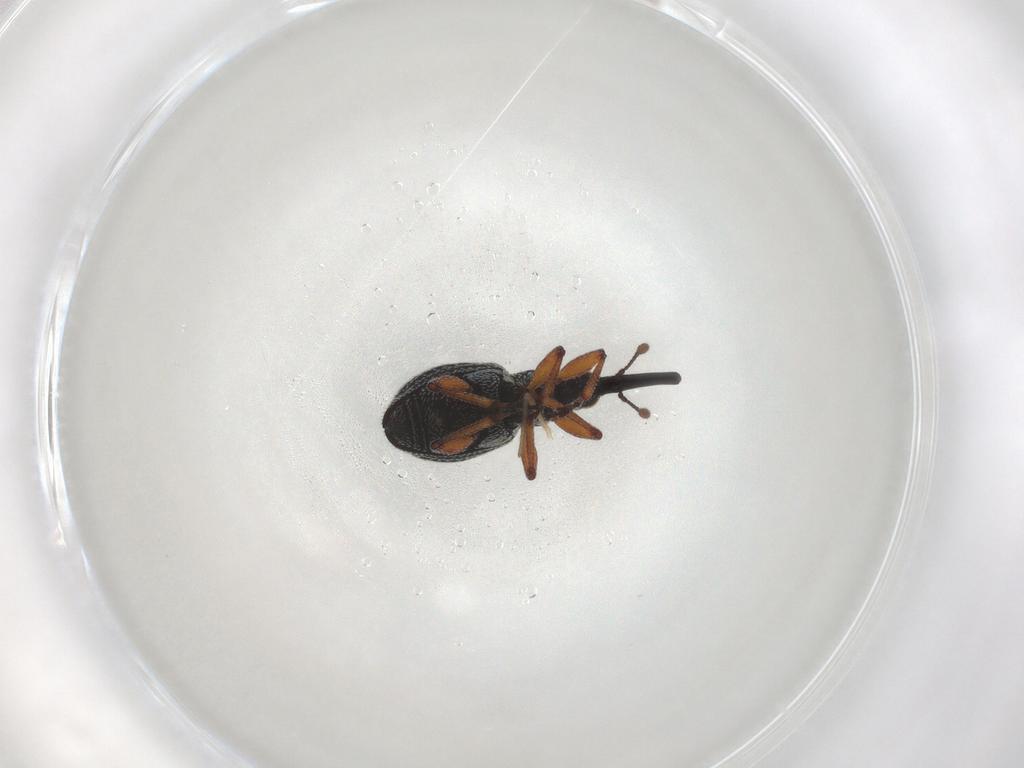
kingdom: Animalia
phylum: Arthropoda
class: Insecta
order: Coleoptera
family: Brentidae
